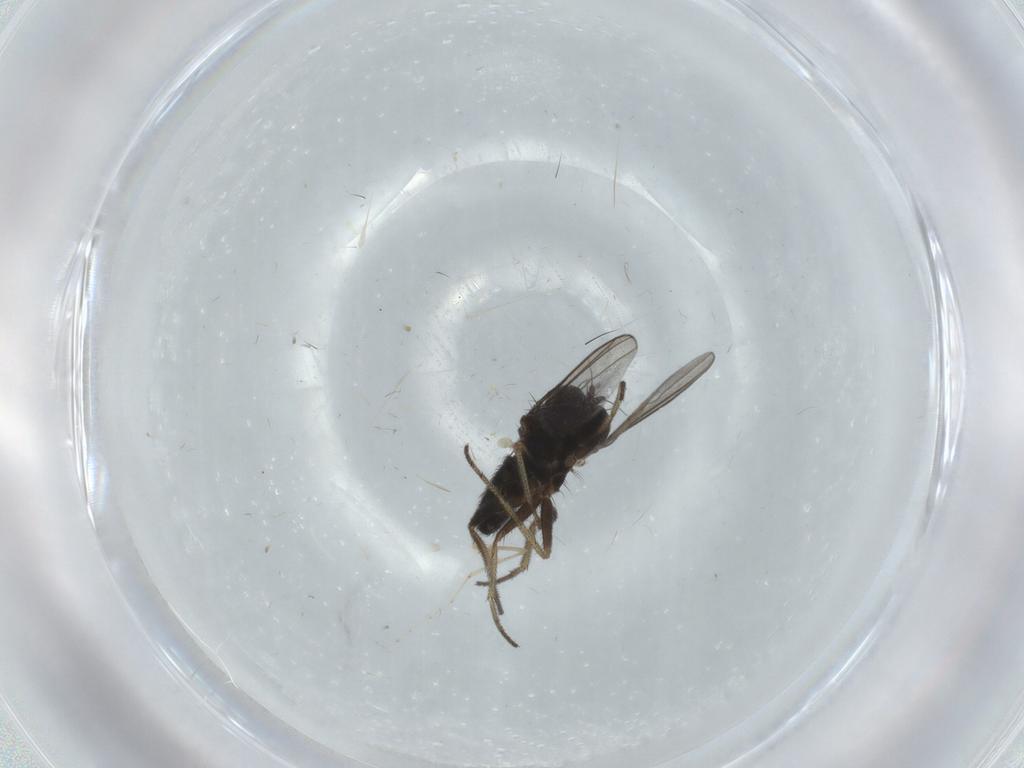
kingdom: Animalia
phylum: Arthropoda
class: Insecta
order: Diptera
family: Dolichopodidae
